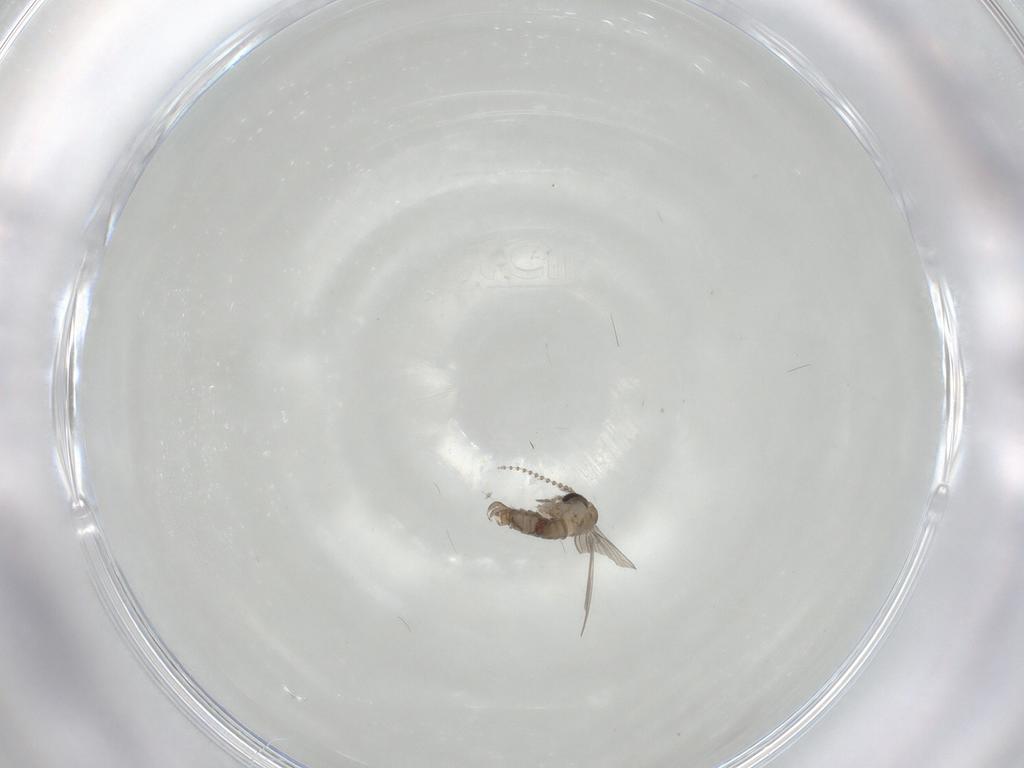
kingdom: Animalia
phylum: Arthropoda
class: Insecta
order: Diptera
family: Psychodidae
